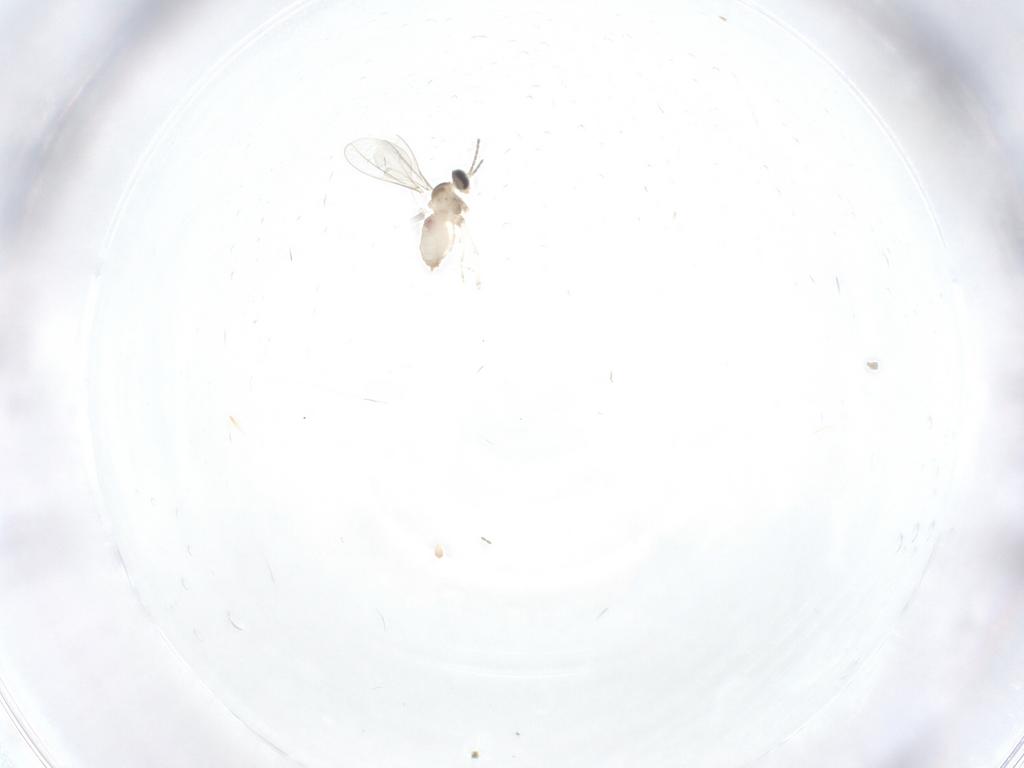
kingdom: Animalia
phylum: Arthropoda
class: Insecta
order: Diptera
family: Cecidomyiidae
